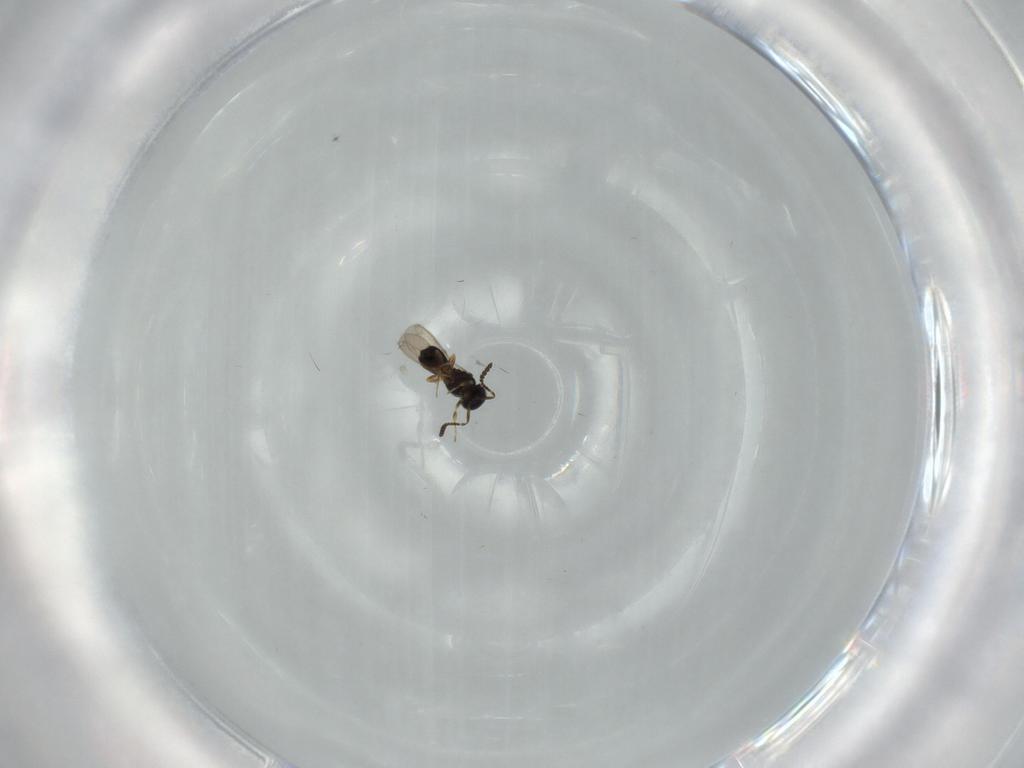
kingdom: Animalia
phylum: Arthropoda
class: Insecta
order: Hymenoptera
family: Scelionidae
